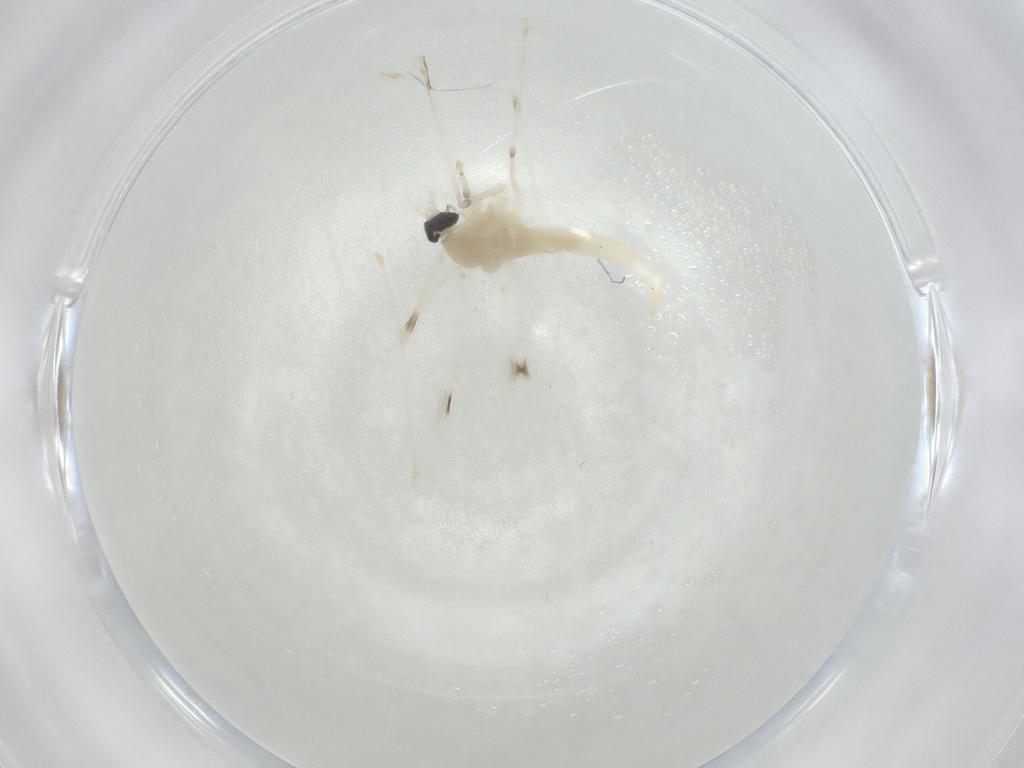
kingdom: Animalia
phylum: Arthropoda
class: Insecta
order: Diptera
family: Cecidomyiidae
